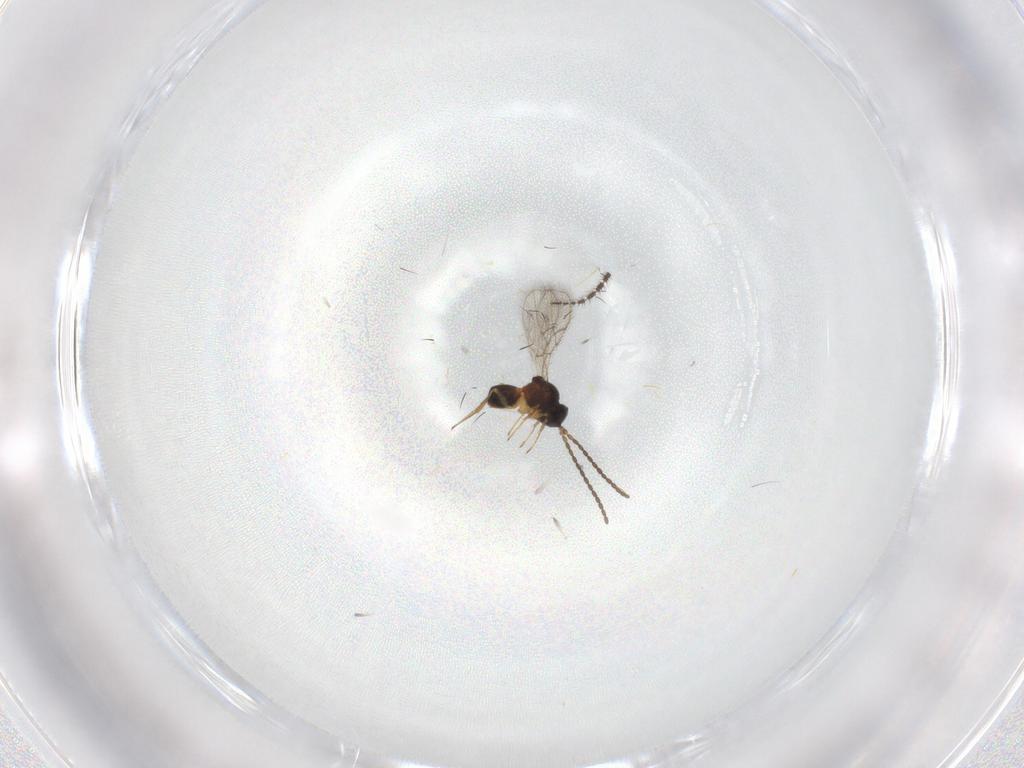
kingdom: Animalia
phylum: Arthropoda
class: Insecta
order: Hymenoptera
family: Figitidae
